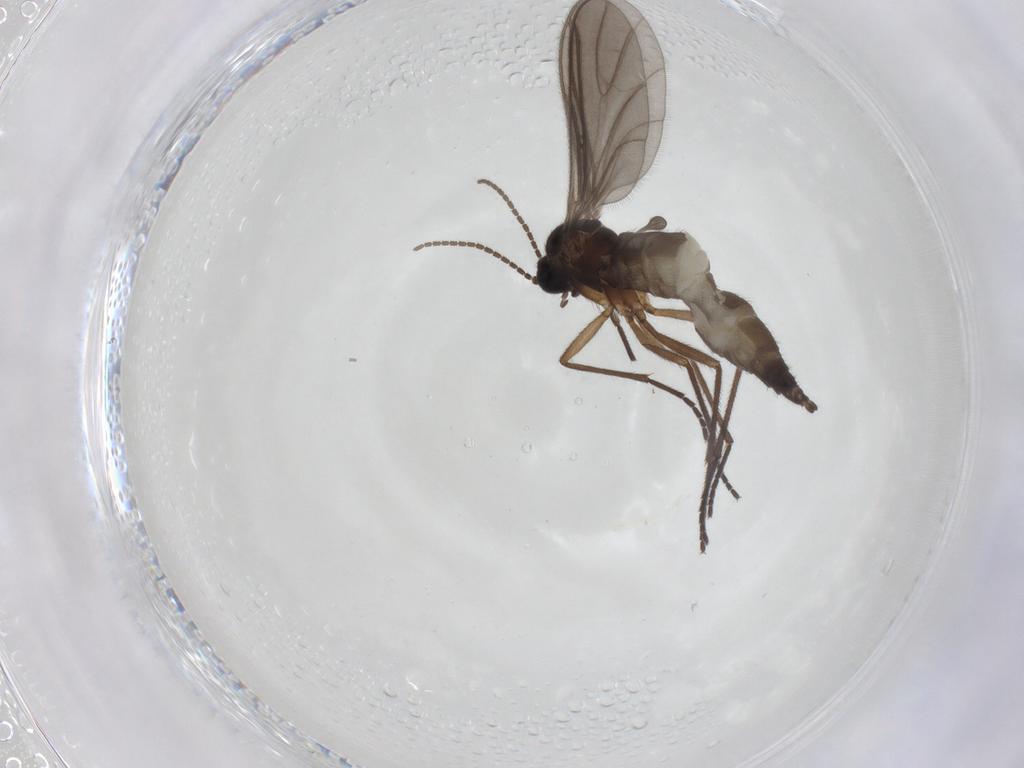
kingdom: Animalia
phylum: Arthropoda
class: Insecta
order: Diptera
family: Sciaridae
